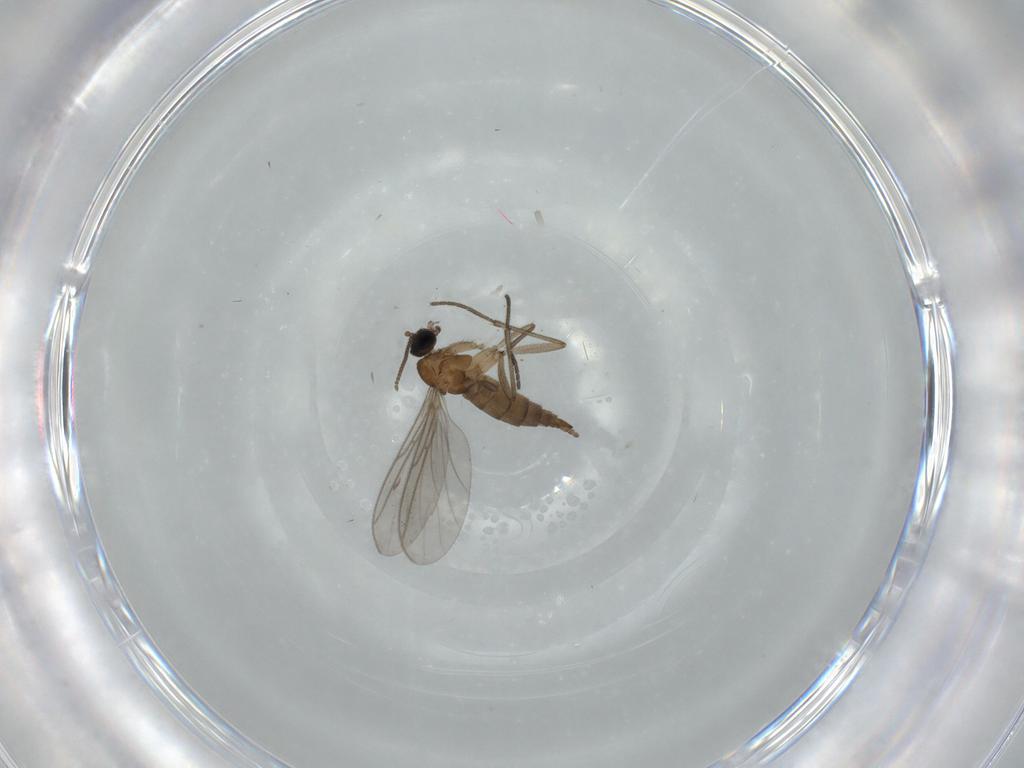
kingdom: Animalia
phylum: Arthropoda
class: Insecta
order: Diptera
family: Sciaridae
